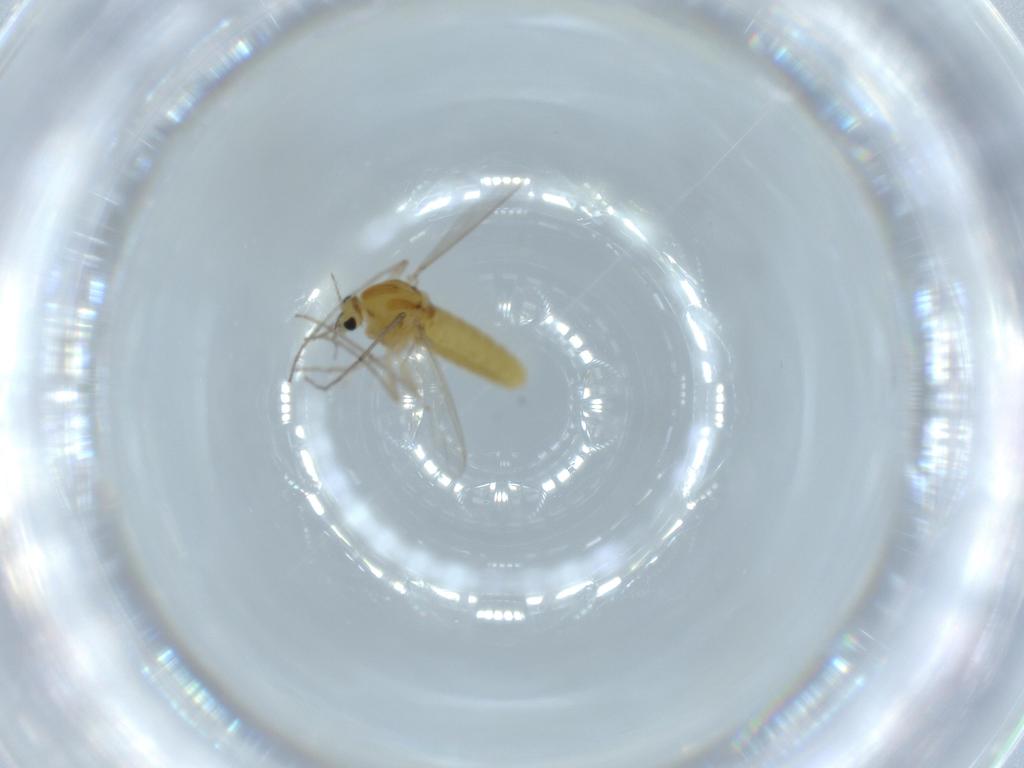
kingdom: Animalia
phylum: Arthropoda
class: Insecta
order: Diptera
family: Chironomidae
